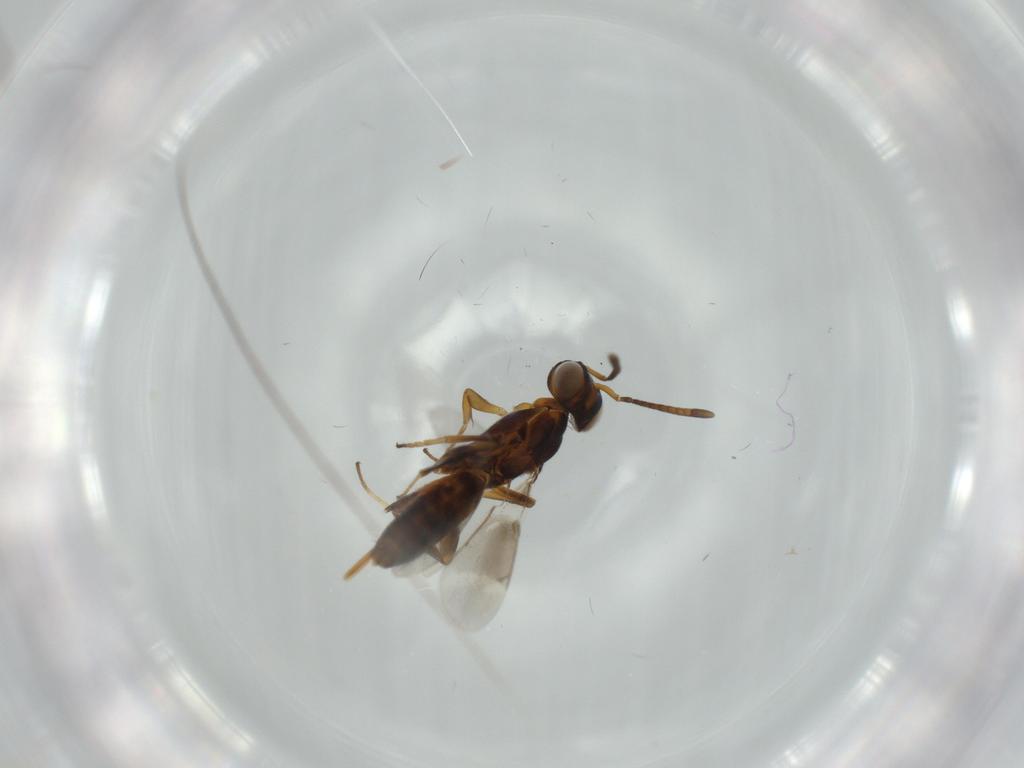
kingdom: Animalia
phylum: Arthropoda
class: Insecta
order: Hymenoptera
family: Eupelmidae
